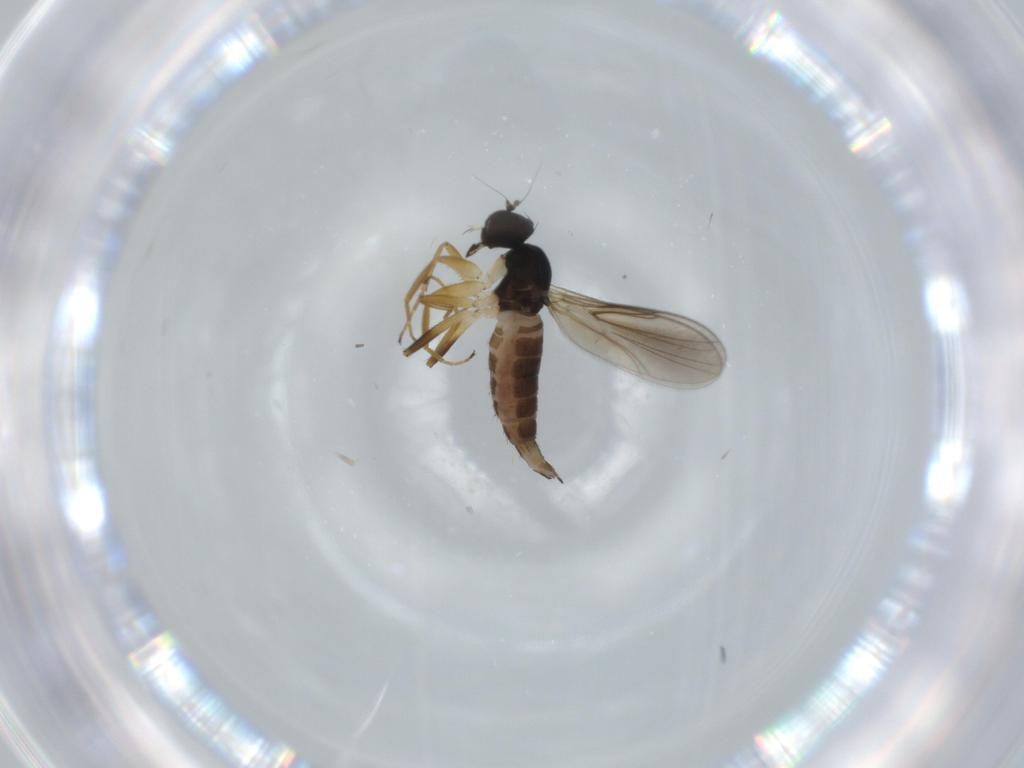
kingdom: Animalia
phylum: Arthropoda
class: Insecta
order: Diptera
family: Hybotidae
